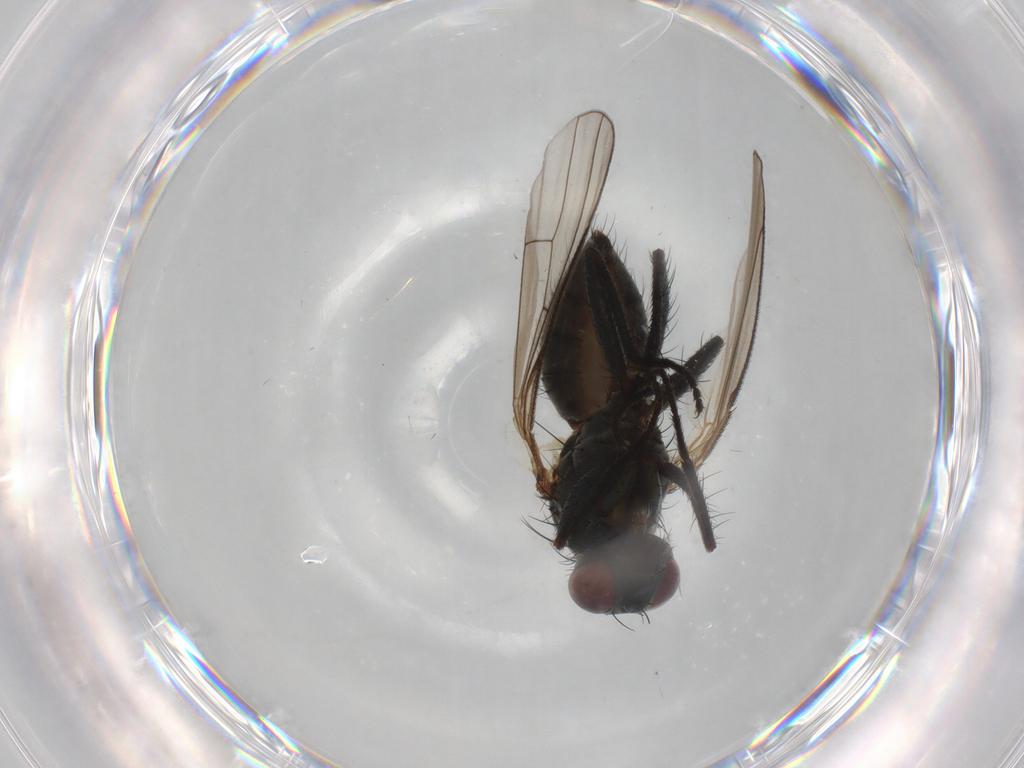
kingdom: Animalia
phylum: Arthropoda
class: Insecta
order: Diptera
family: Muscidae
